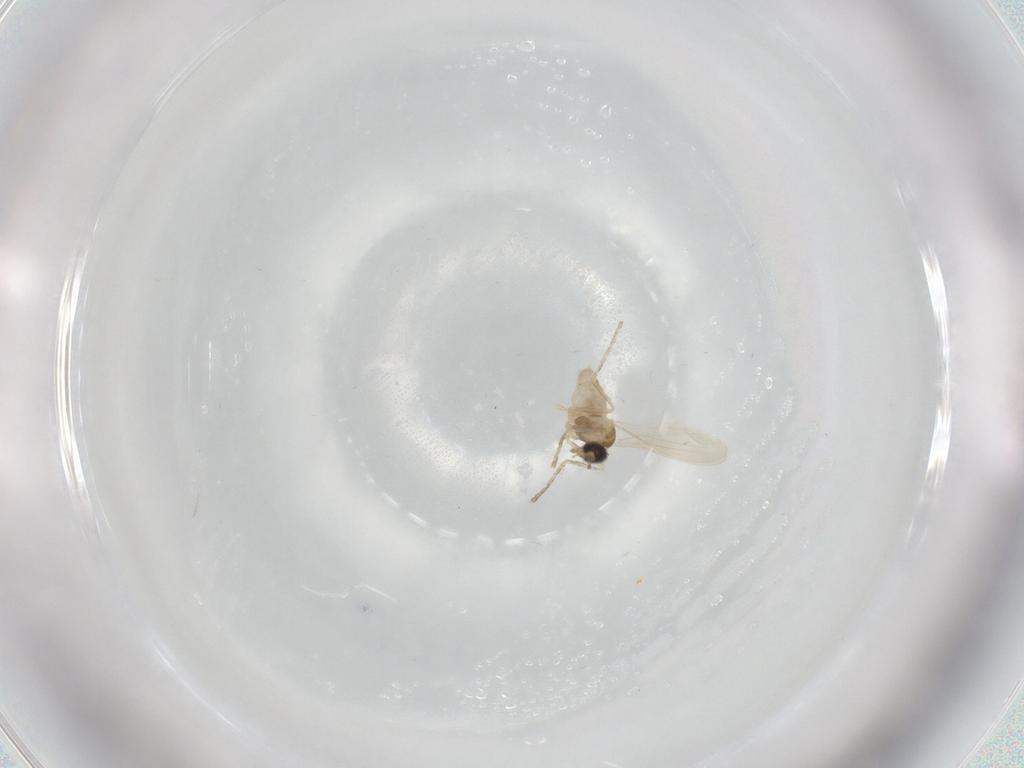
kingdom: Animalia
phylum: Arthropoda
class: Insecta
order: Diptera
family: Cecidomyiidae
